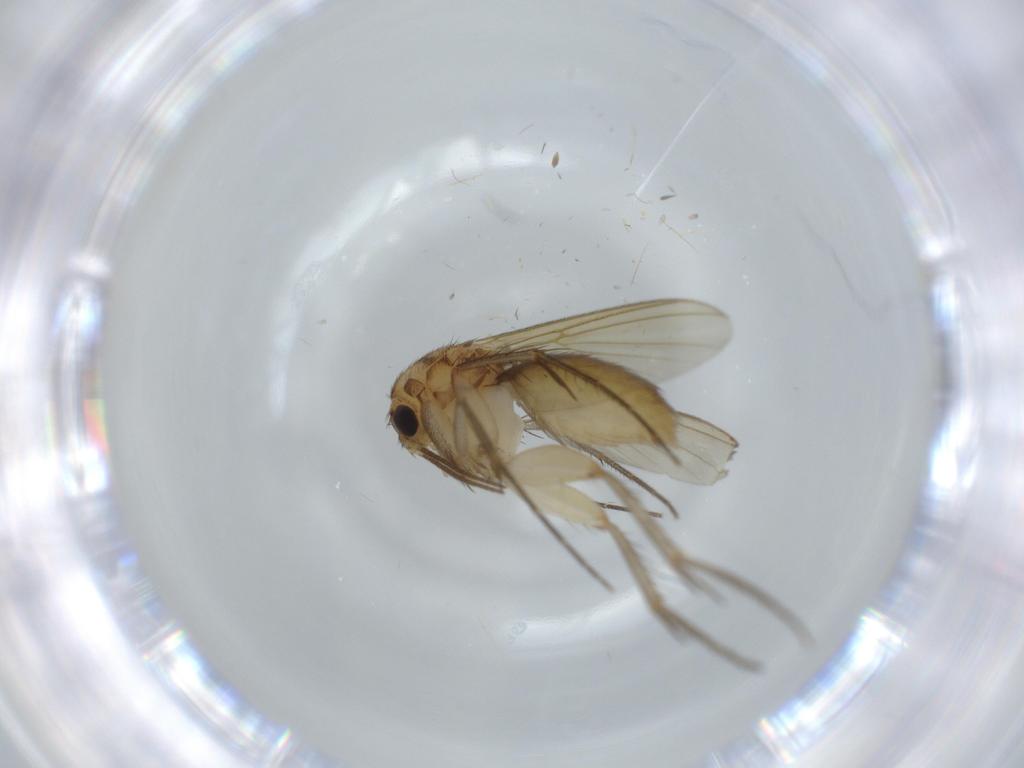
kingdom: Animalia
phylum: Arthropoda
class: Insecta
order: Diptera
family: Mycetophilidae
